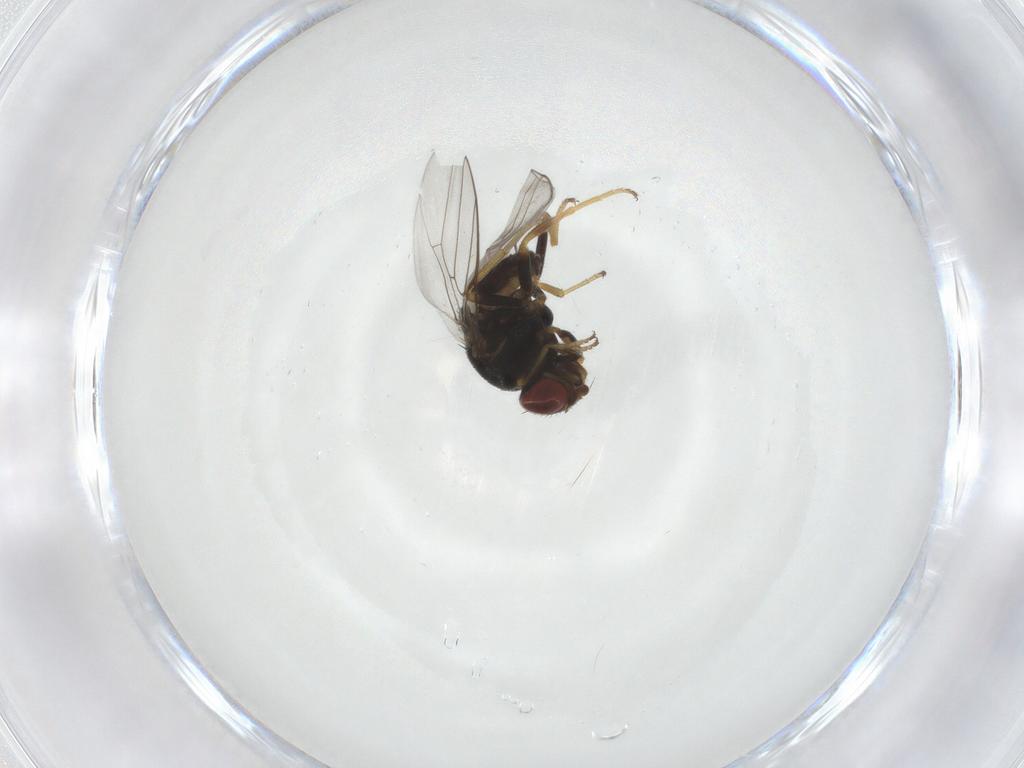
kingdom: Animalia
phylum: Arthropoda
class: Insecta
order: Diptera
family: Chloropidae
